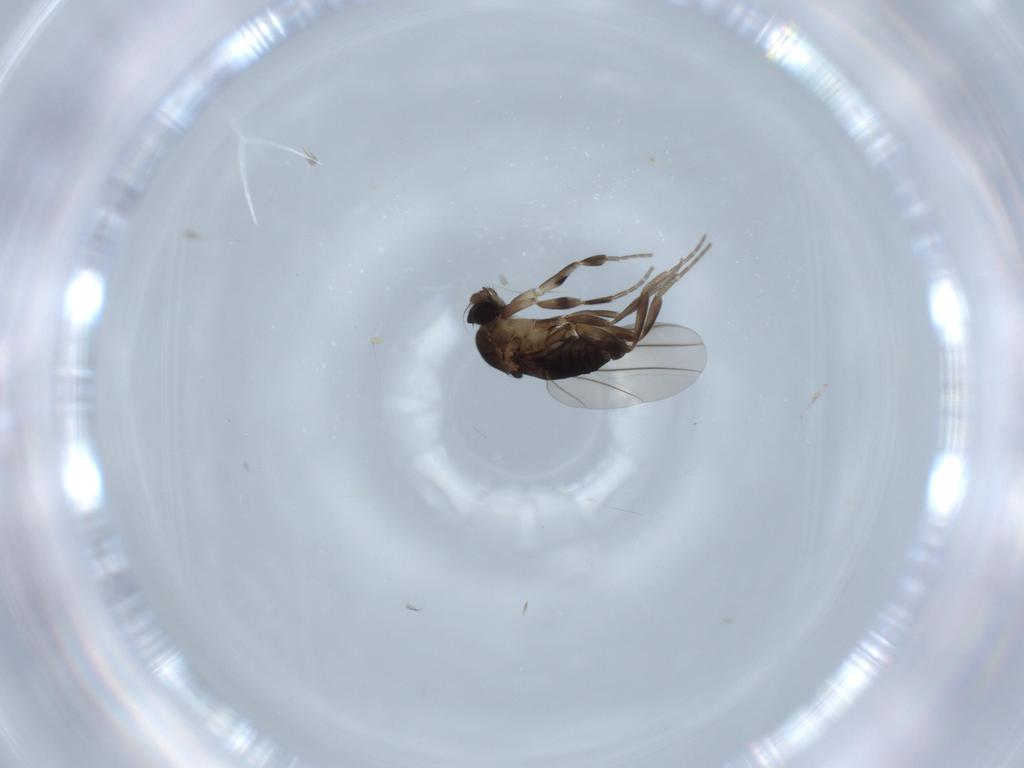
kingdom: Animalia
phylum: Arthropoda
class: Insecta
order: Diptera
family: Phoridae
